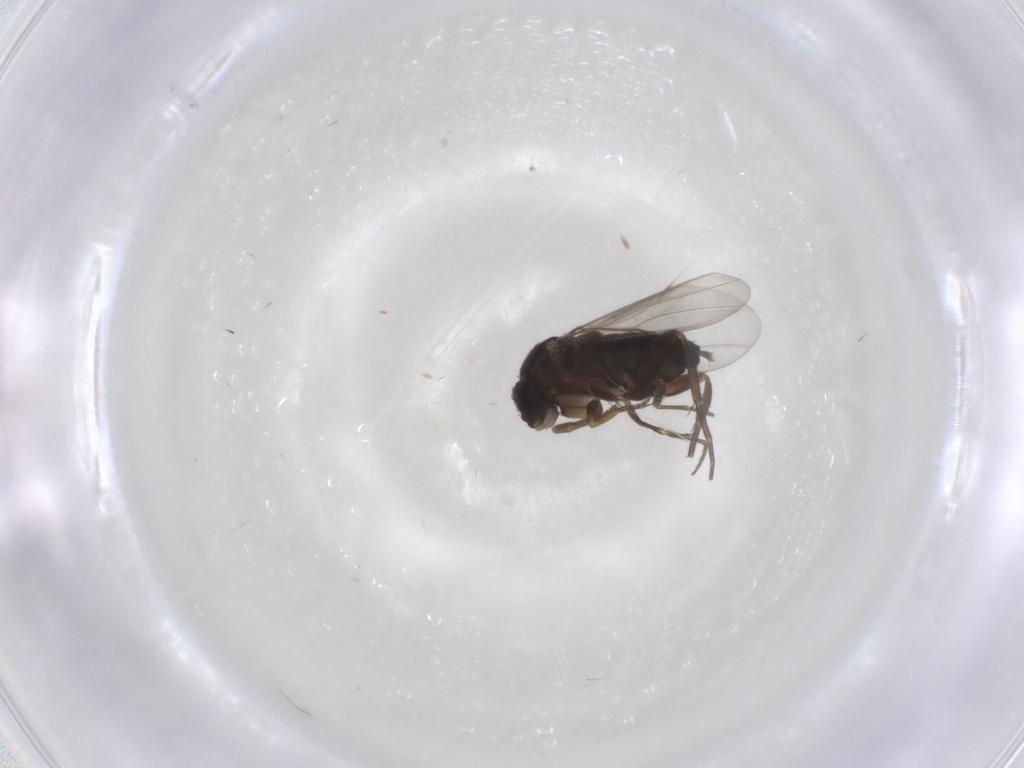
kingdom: Animalia
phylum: Arthropoda
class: Insecta
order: Diptera
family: Phoridae
